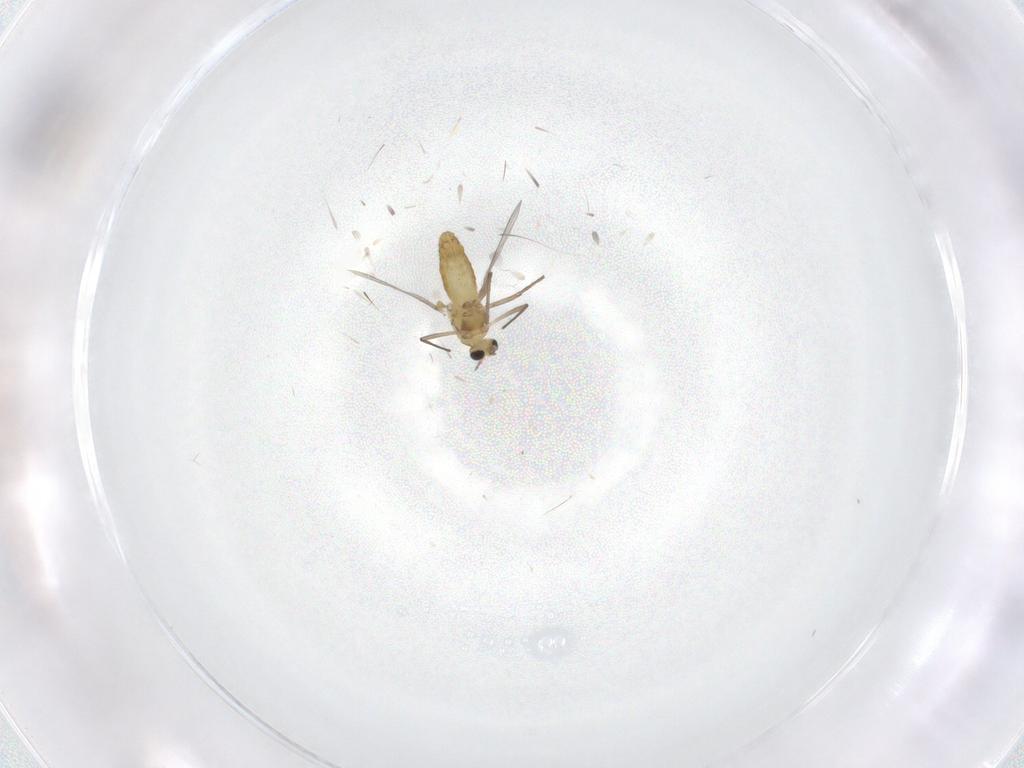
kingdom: Animalia
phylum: Arthropoda
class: Insecta
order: Diptera
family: Chironomidae
